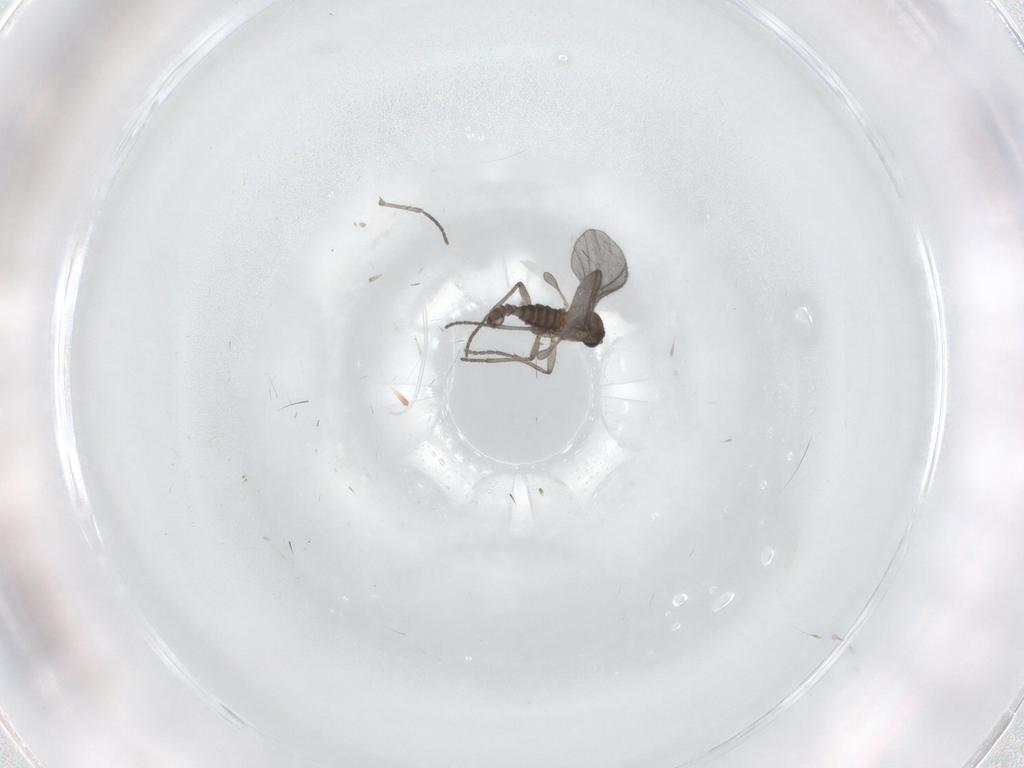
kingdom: Animalia
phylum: Arthropoda
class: Insecta
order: Diptera
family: Sciaridae
